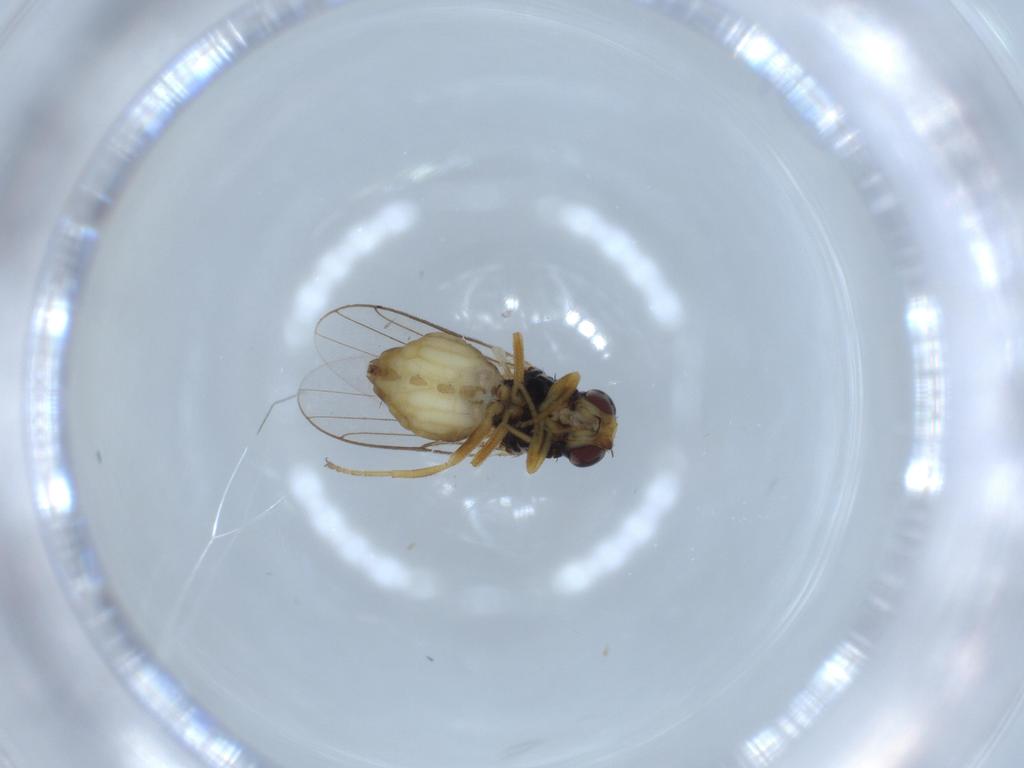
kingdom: Animalia
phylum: Arthropoda
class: Insecta
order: Diptera
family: Chloropidae
